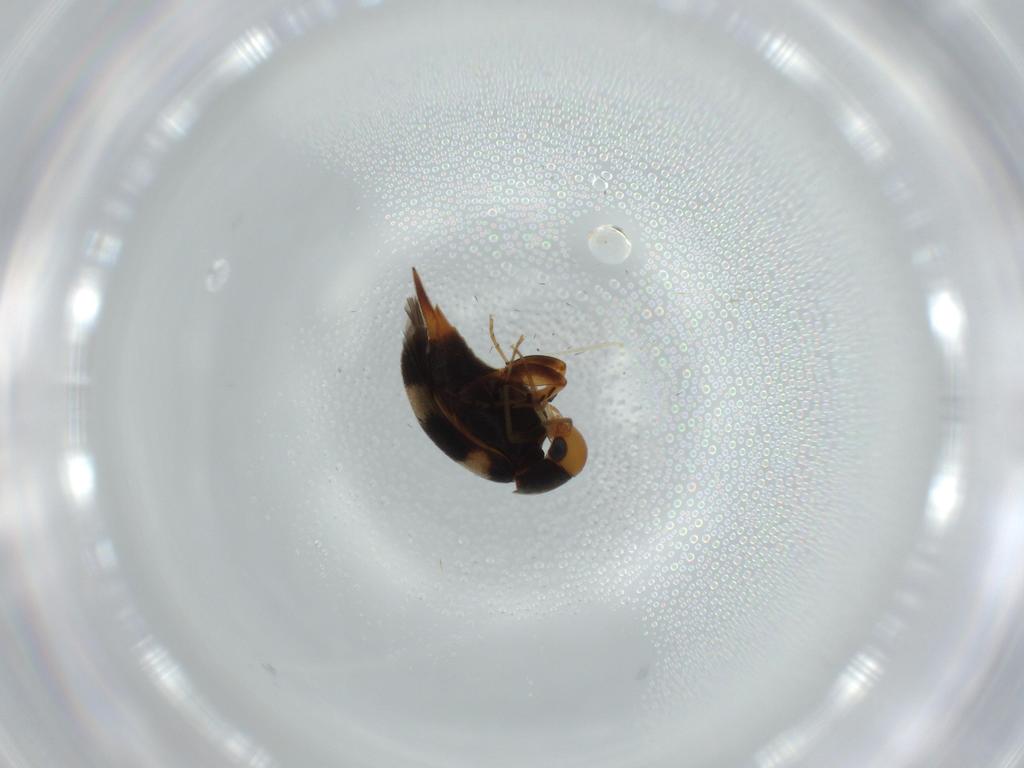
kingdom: Animalia
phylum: Arthropoda
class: Insecta
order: Coleoptera
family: Mordellidae
